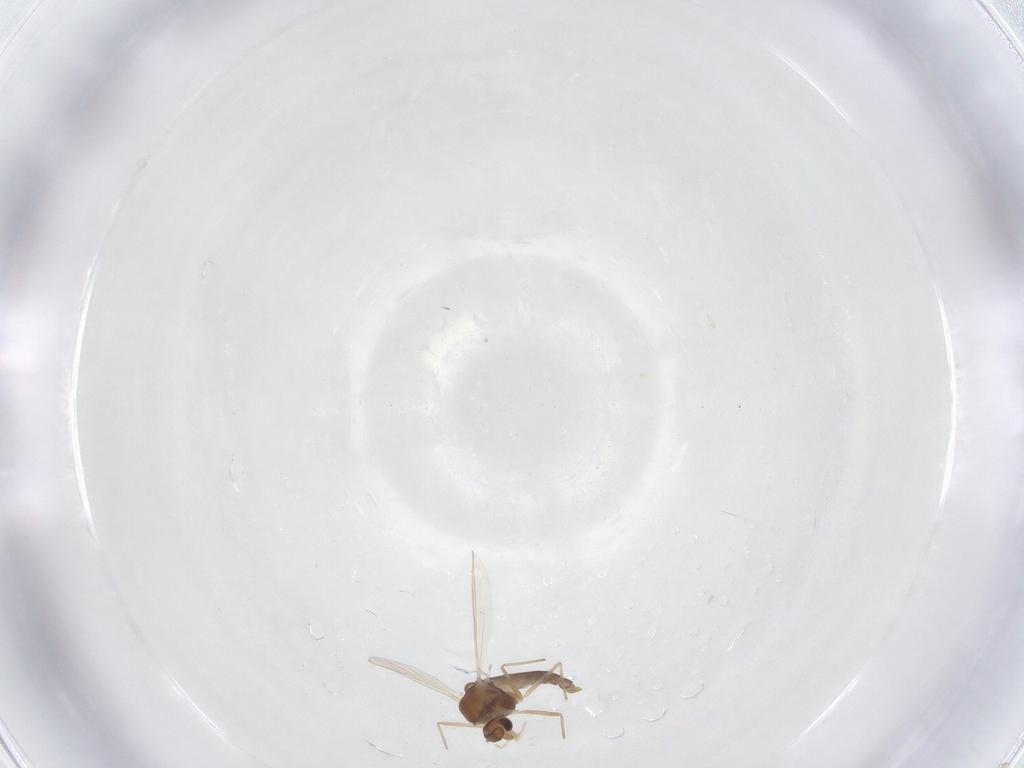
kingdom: Animalia
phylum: Arthropoda
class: Insecta
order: Diptera
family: Chironomidae
